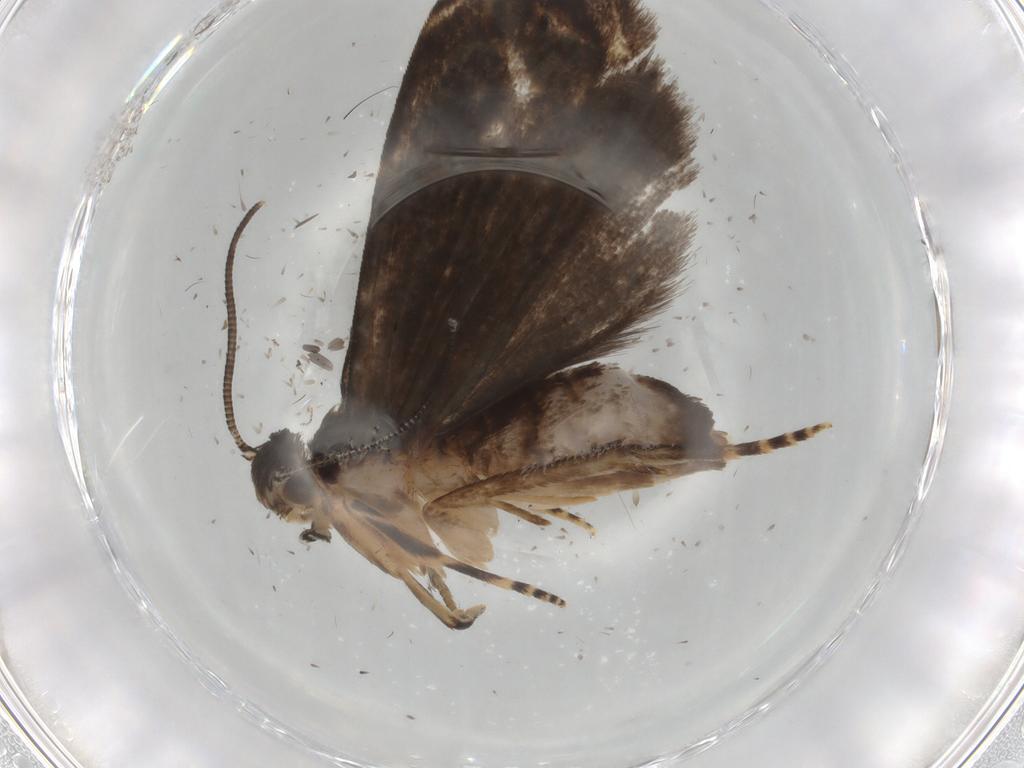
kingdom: Animalia
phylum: Arthropoda
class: Insecta
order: Lepidoptera
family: Dryadaulidae
